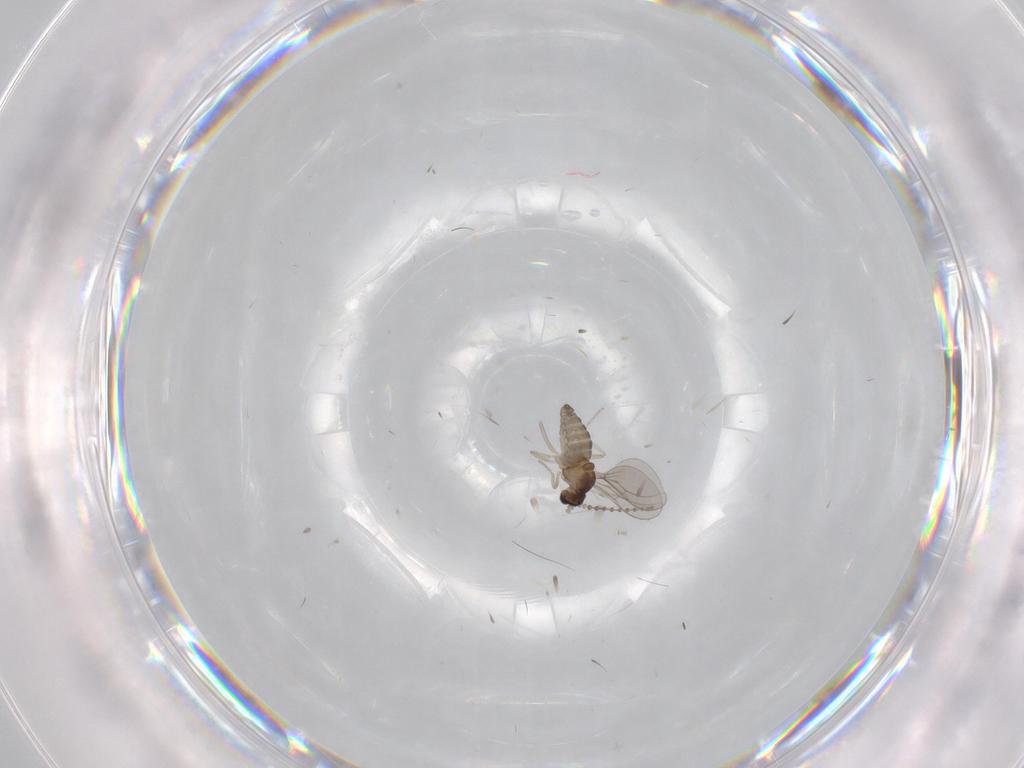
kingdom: Animalia
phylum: Arthropoda
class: Insecta
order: Diptera
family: Cecidomyiidae
